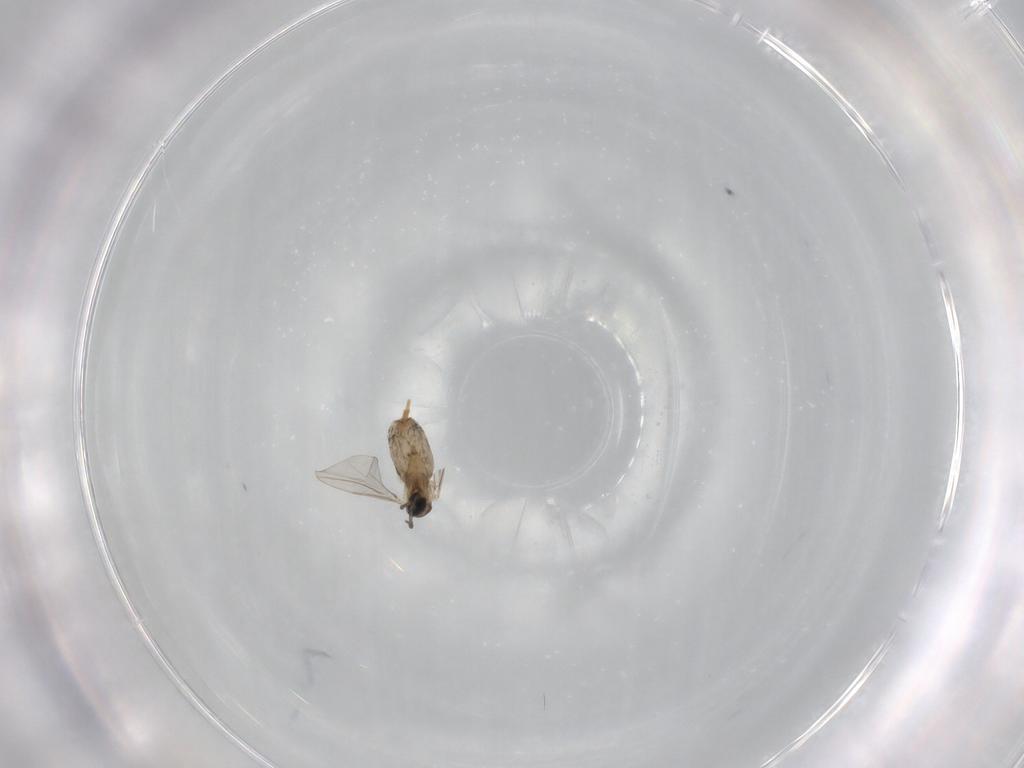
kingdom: Animalia
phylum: Arthropoda
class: Insecta
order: Diptera
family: Cecidomyiidae
